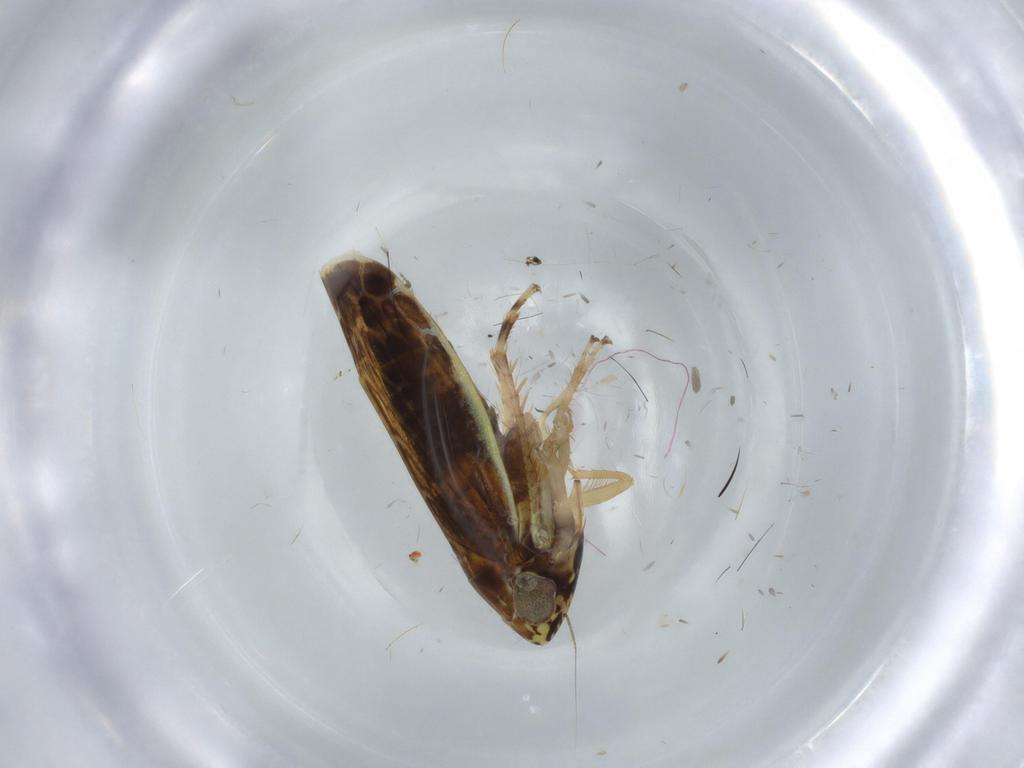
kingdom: Animalia
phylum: Arthropoda
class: Insecta
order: Hemiptera
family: Cicadellidae
